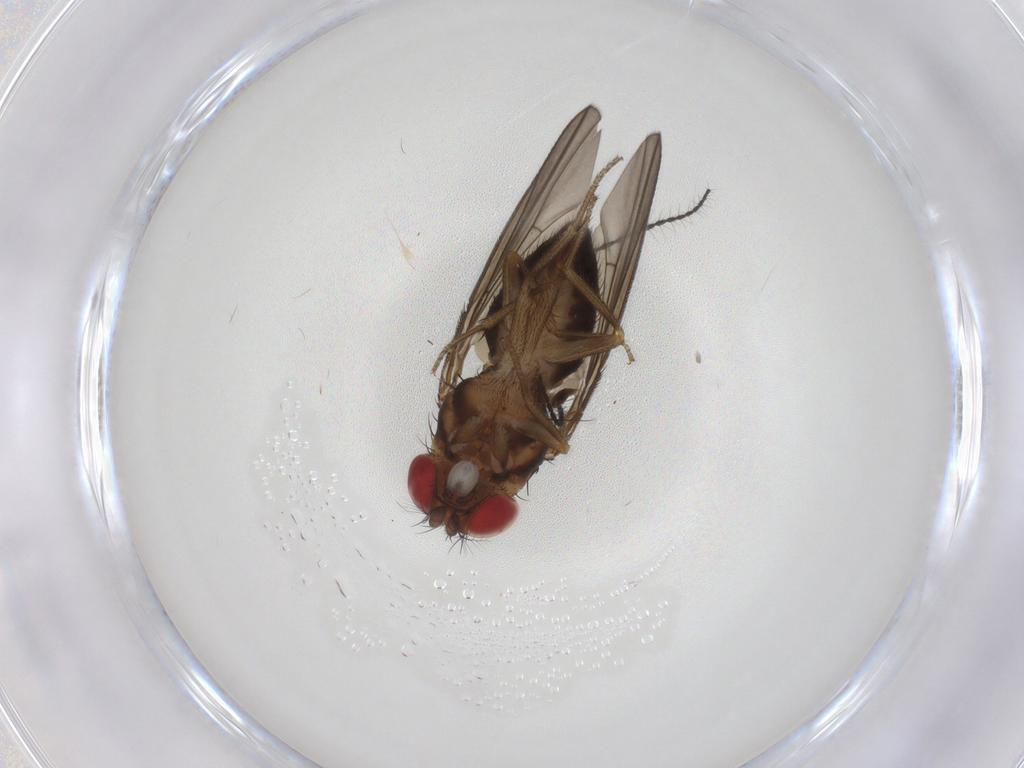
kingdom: Animalia
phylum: Arthropoda
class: Insecta
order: Diptera
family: Drosophilidae
